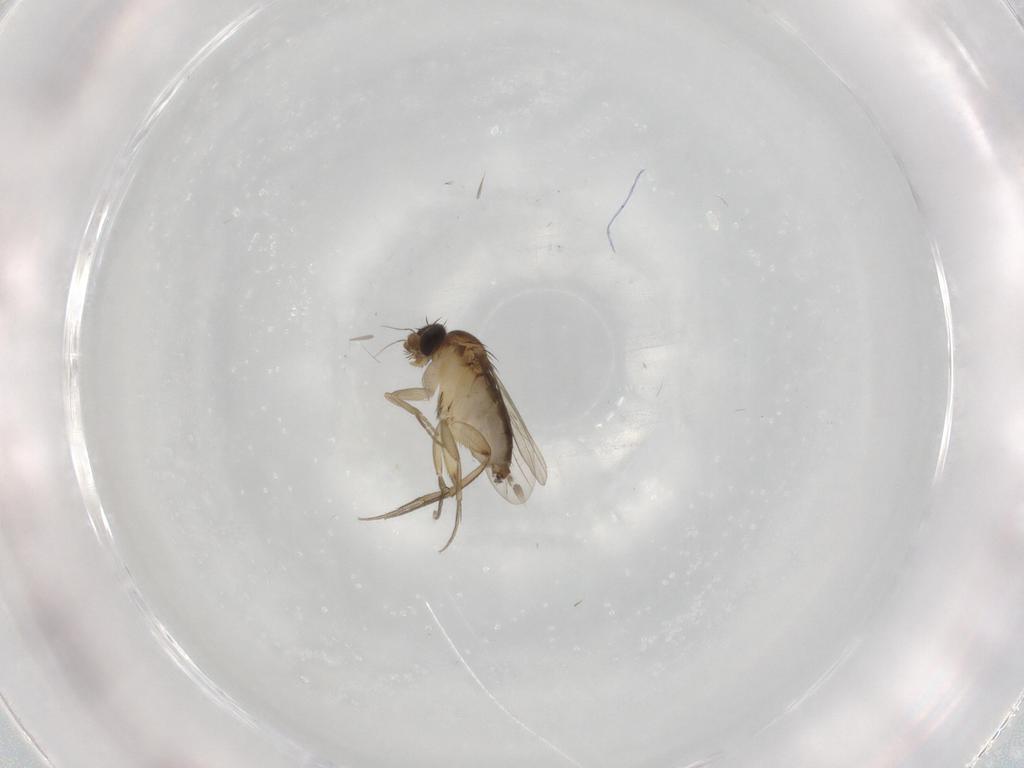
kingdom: Animalia
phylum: Arthropoda
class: Insecta
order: Diptera
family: Phoridae
